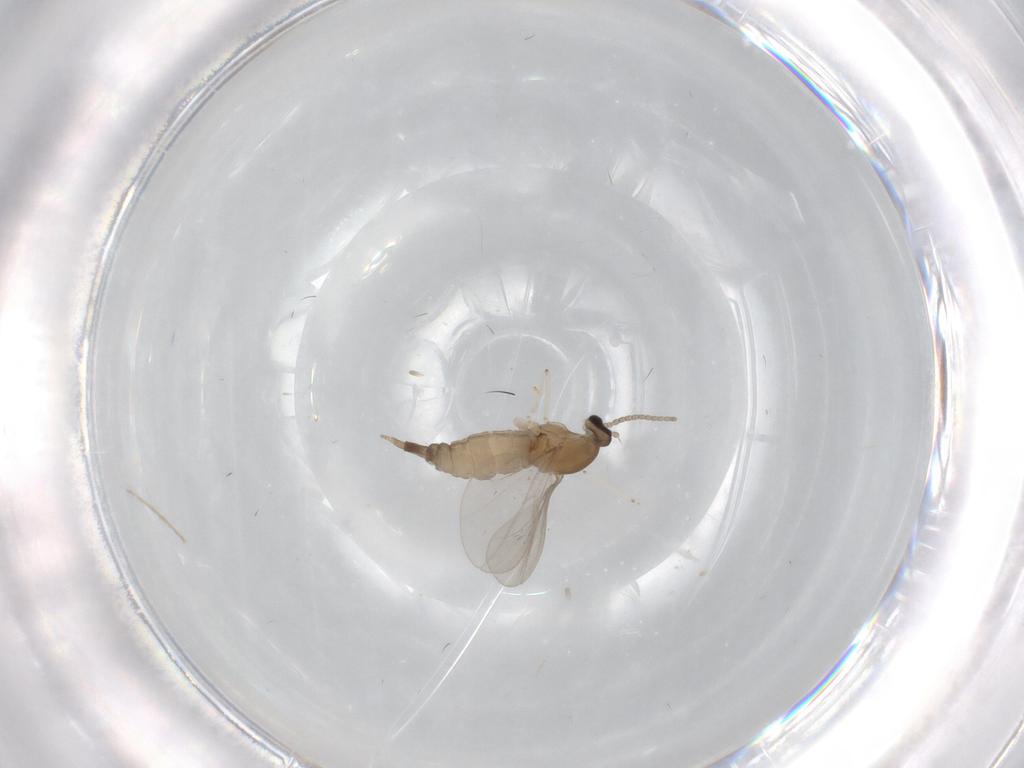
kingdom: Animalia
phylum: Arthropoda
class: Insecta
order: Diptera
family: Cecidomyiidae
